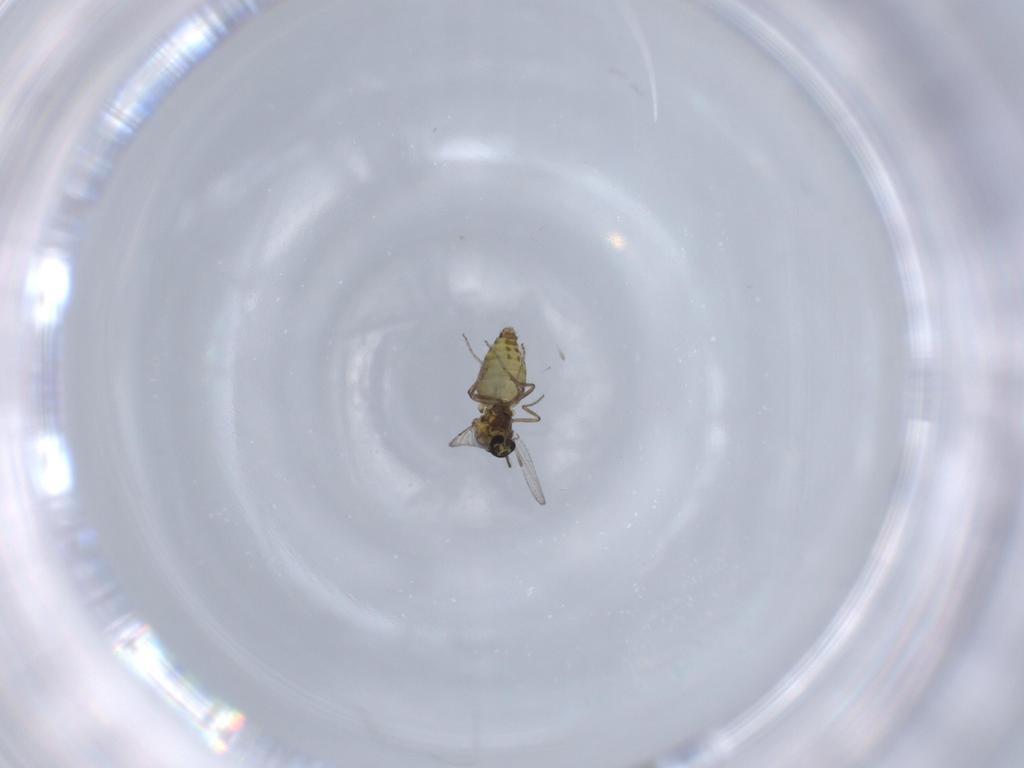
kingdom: Animalia
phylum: Arthropoda
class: Insecta
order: Diptera
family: Ceratopogonidae
